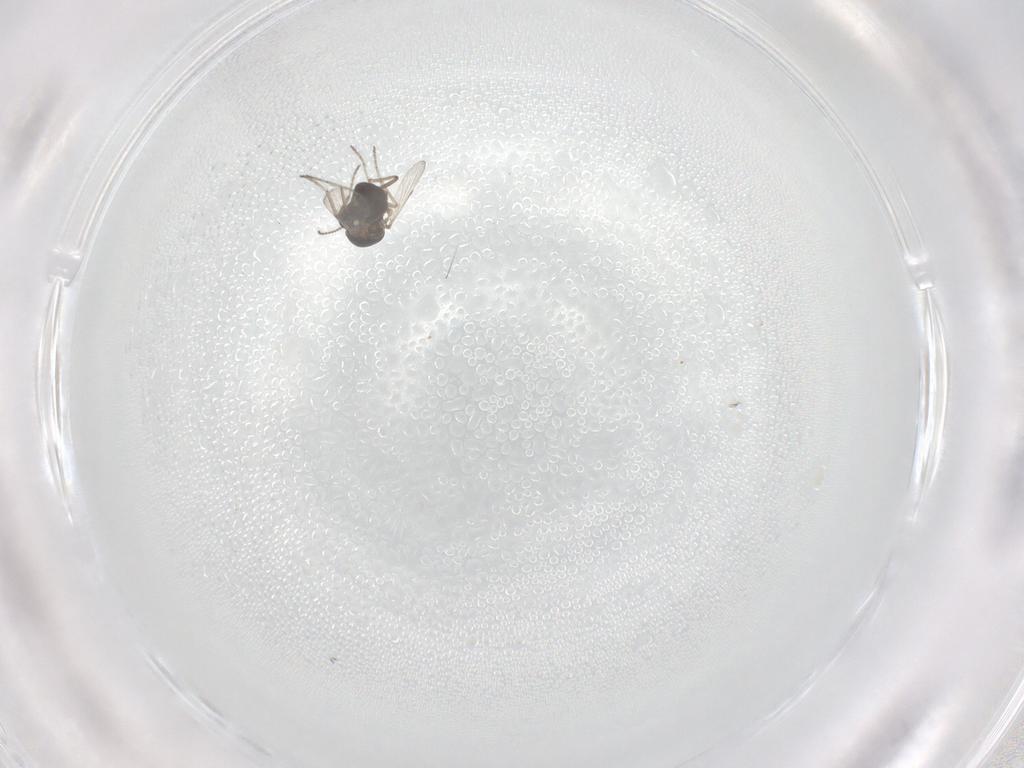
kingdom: Animalia
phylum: Arthropoda
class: Insecta
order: Diptera
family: Ceratopogonidae
